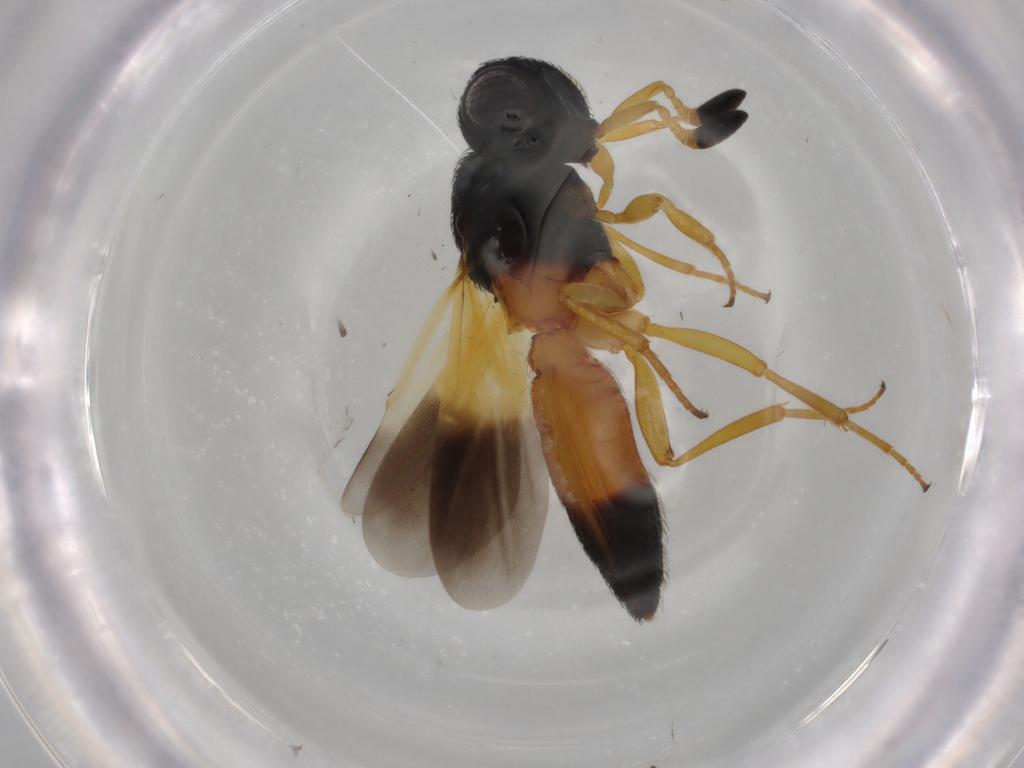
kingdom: Animalia
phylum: Arthropoda
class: Insecta
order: Hymenoptera
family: Scelionidae
